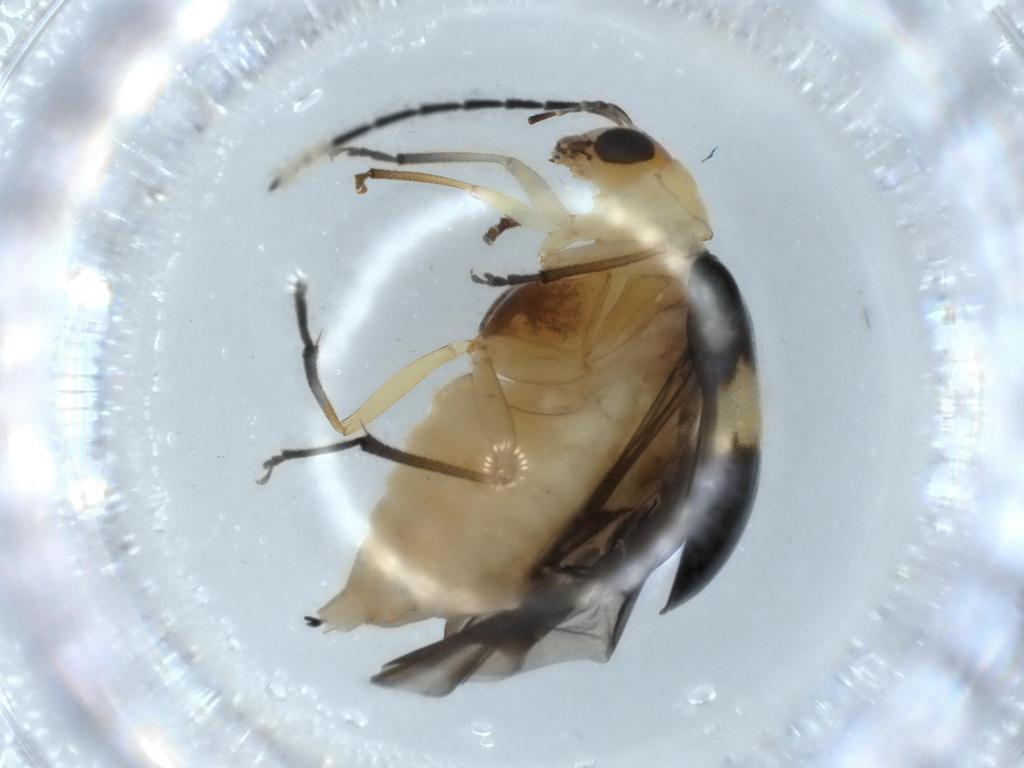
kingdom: Animalia
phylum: Arthropoda
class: Insecta
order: Coleoptera
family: Chrysomelidae
